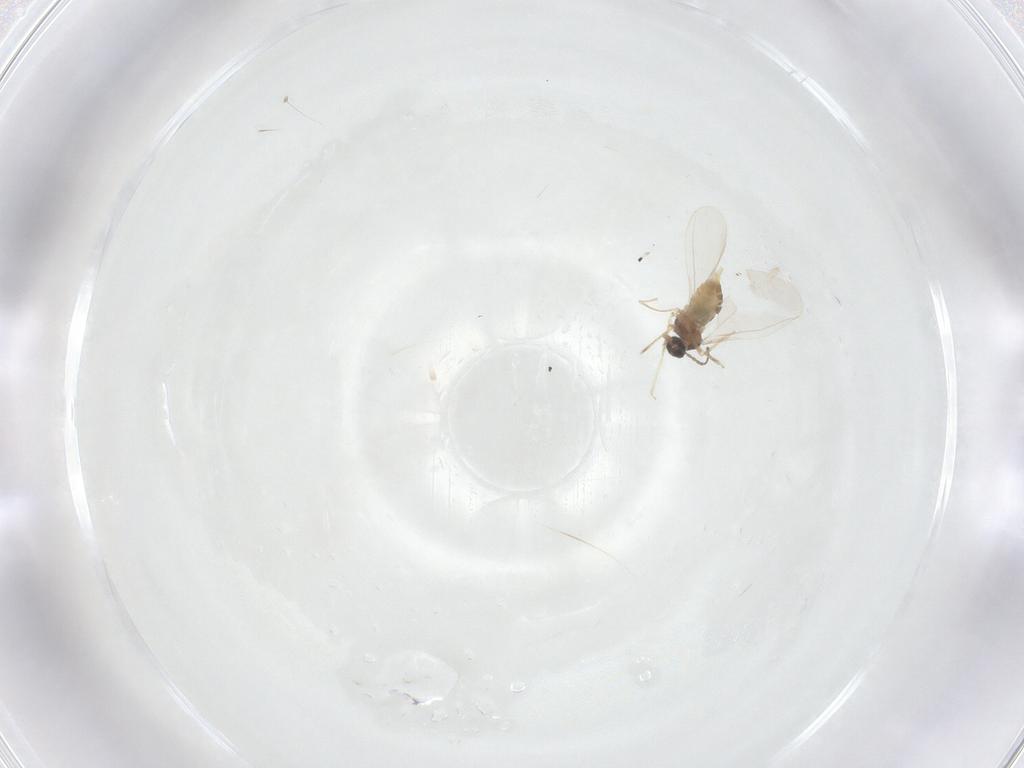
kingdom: Animalia
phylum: Arthropoda
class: Insecta
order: Diptera
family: Cecidomyiidae
